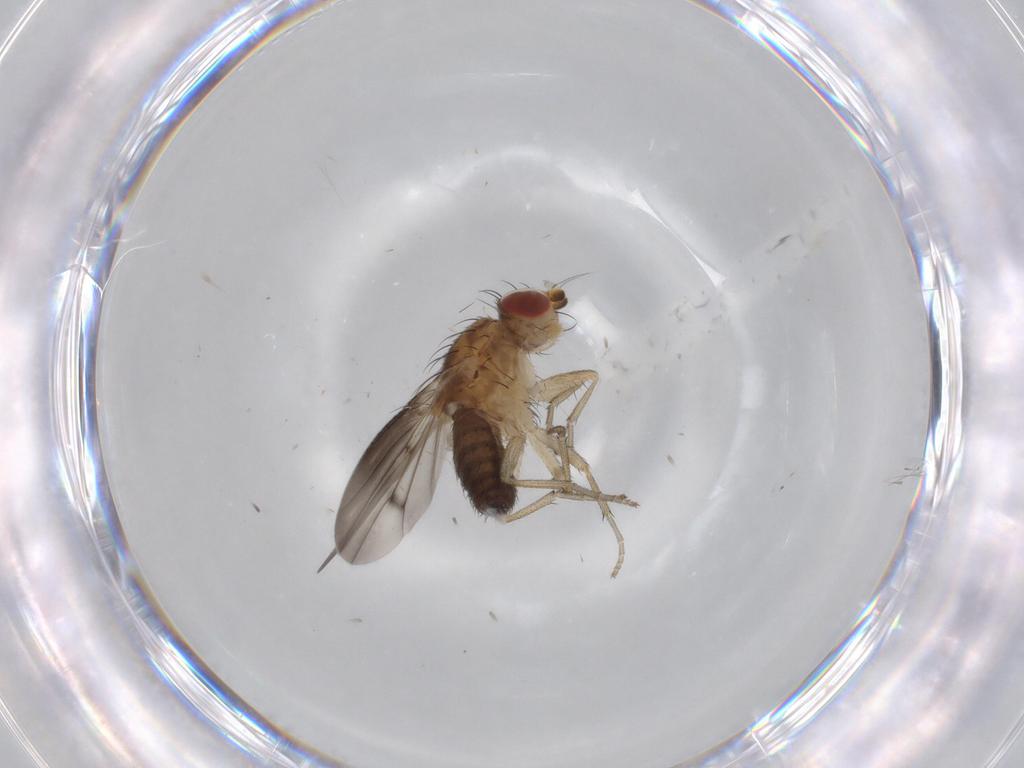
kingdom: Animalia
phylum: Arthropoda
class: Insecta
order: Diptera
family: Heleomyzidae
